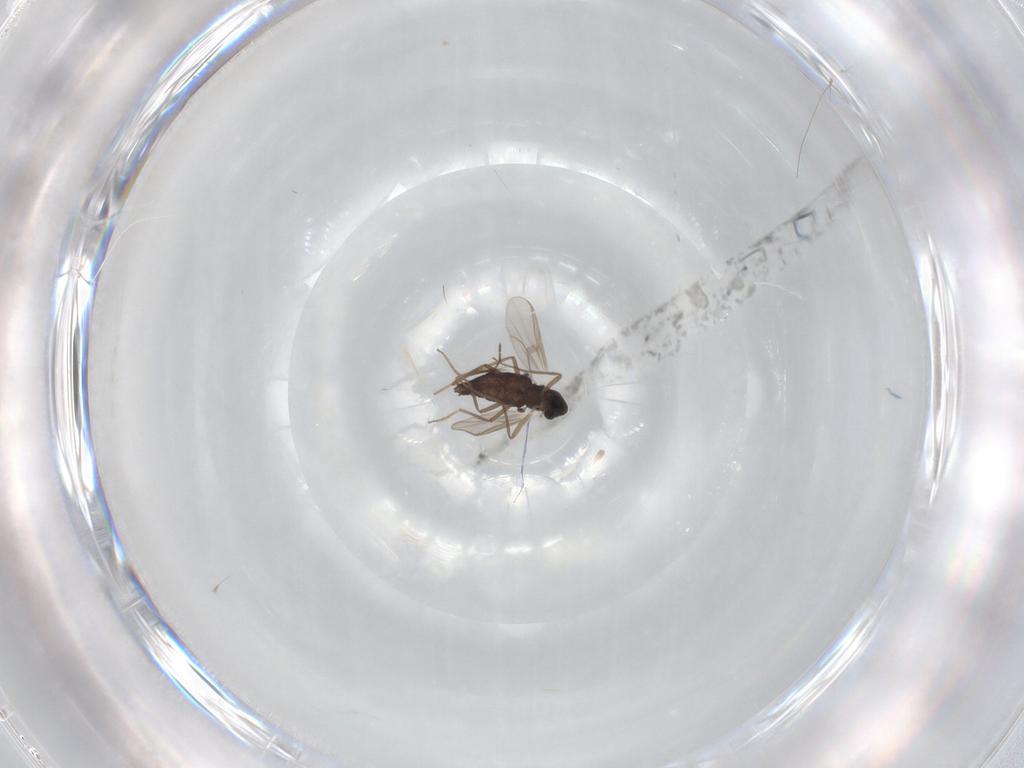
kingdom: Animalia
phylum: Arthropoda
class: Insecta
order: Diptera
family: Chironomidae
